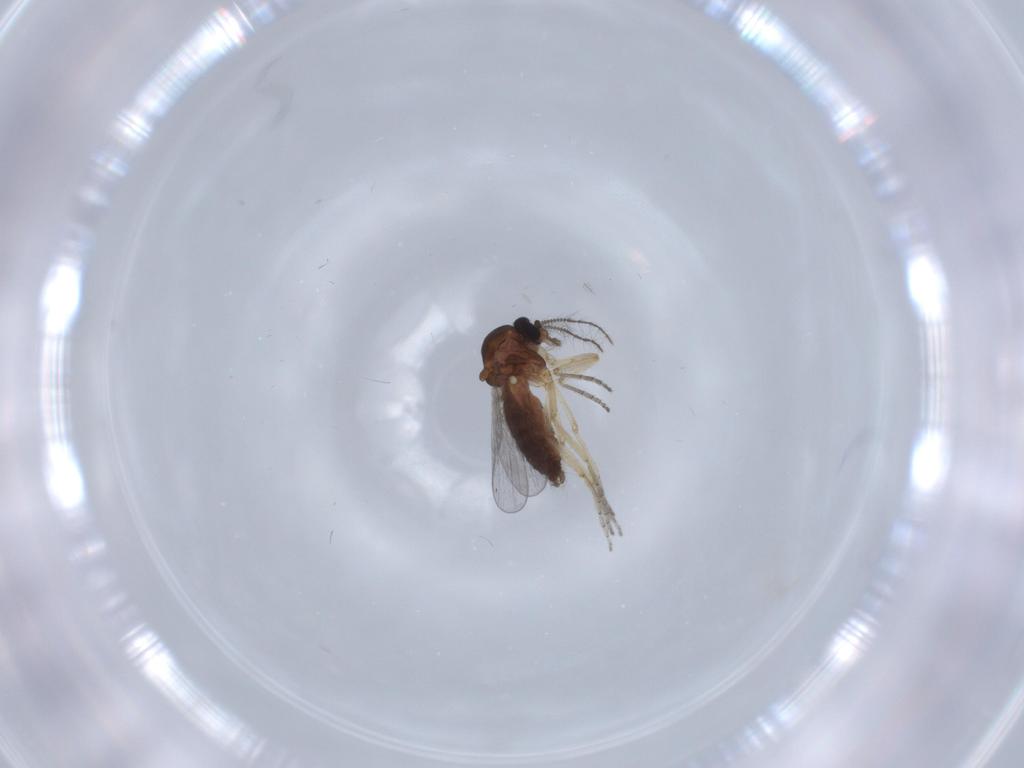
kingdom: Animalia
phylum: Arthropoda
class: Insecta
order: Diptera
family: Ceratopogonidae
